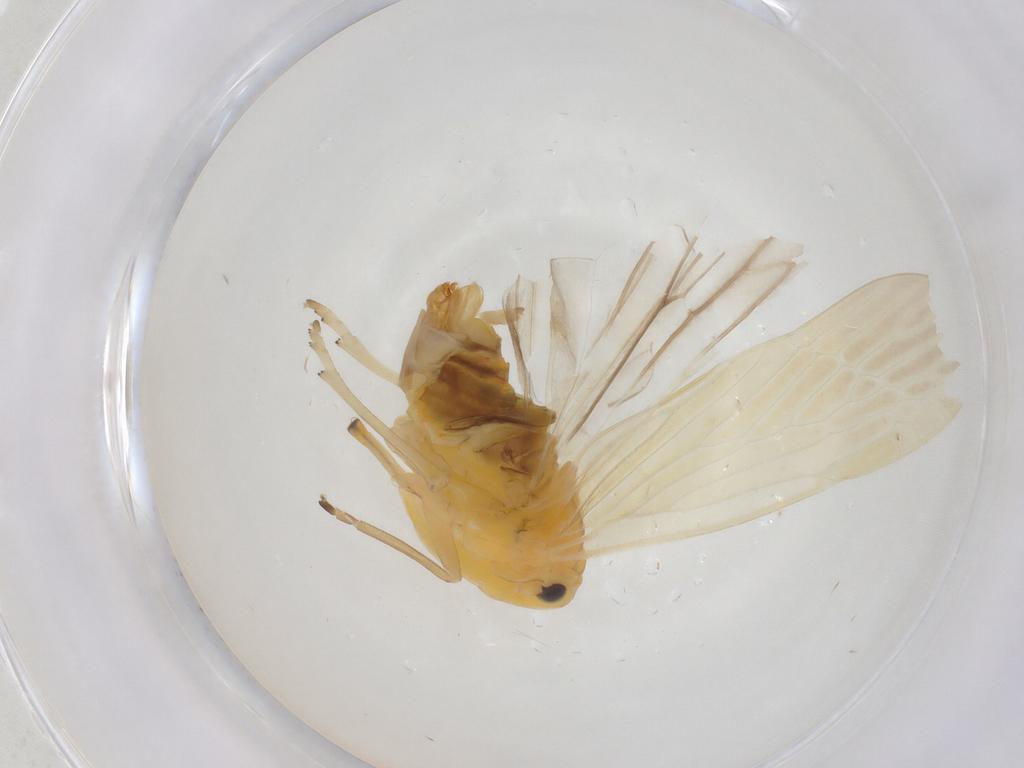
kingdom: Animalia
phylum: Arthropoda
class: Insecta
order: Hemiptera
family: Derbidae
